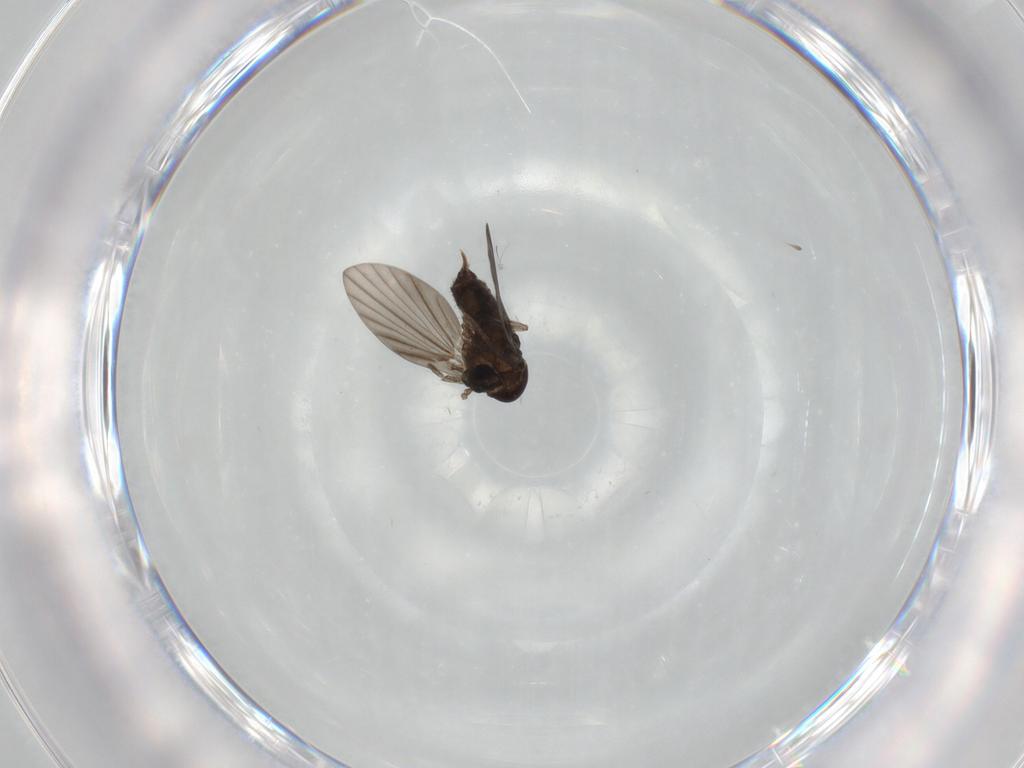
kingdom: Animalia
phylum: Arthropoda
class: Insecta
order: Diptera
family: Psychodidae
